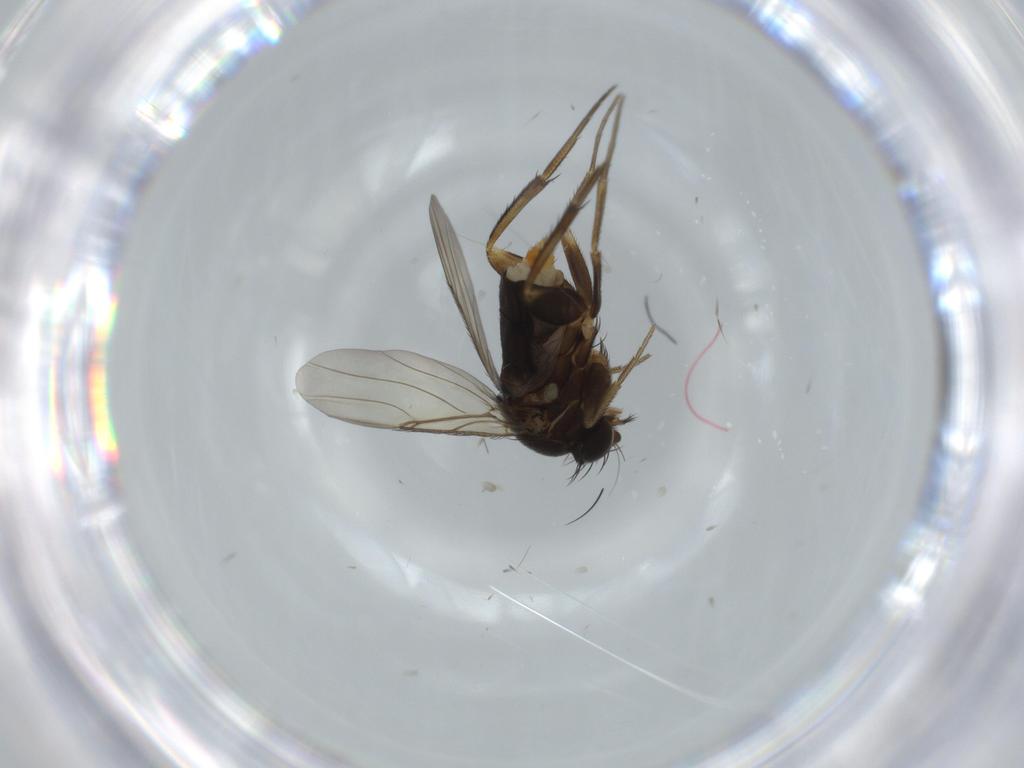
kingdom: Animalia
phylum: Arthropoda
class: Insecta
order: Diptera
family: Phoridae
